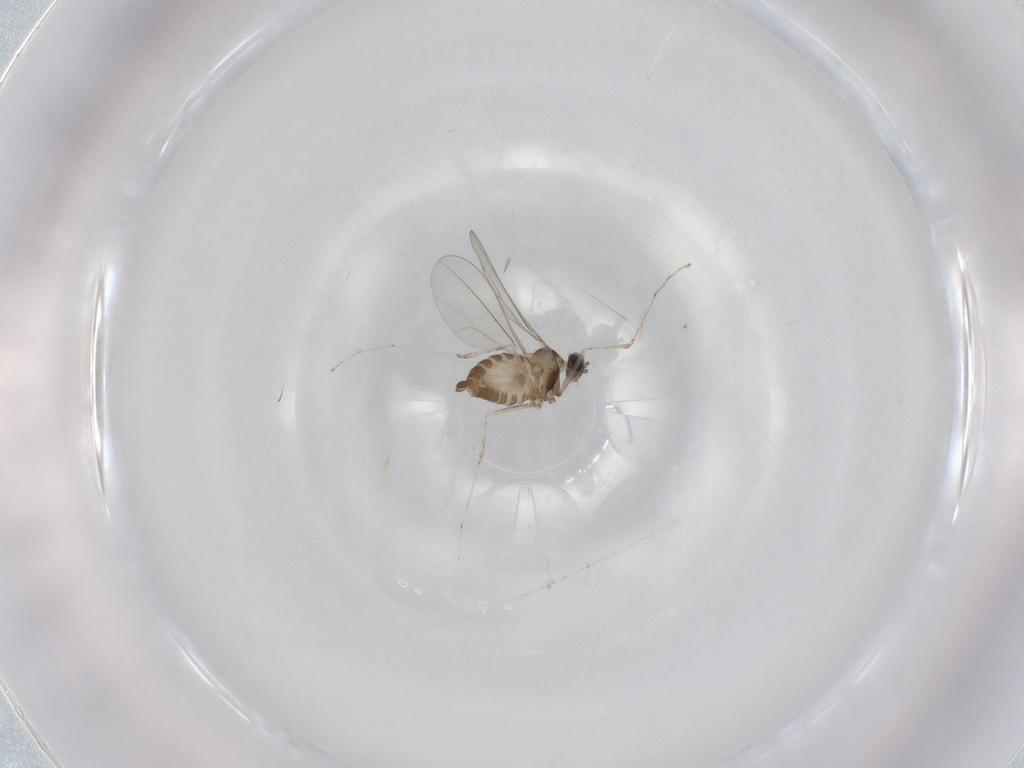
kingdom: Animalia
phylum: Arthropoda
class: Insecta
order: Diptera
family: Cecidomyiidae
